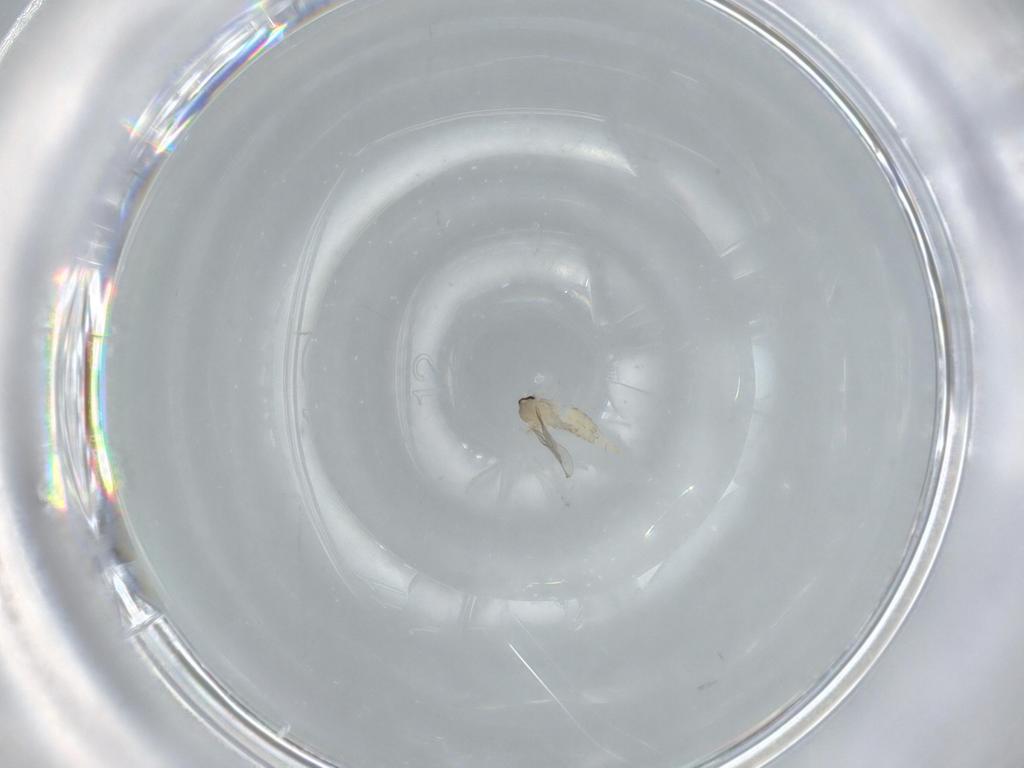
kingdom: Animalia
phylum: Arthropoda
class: Insecta
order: Diptera
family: Cecidomyiidae
